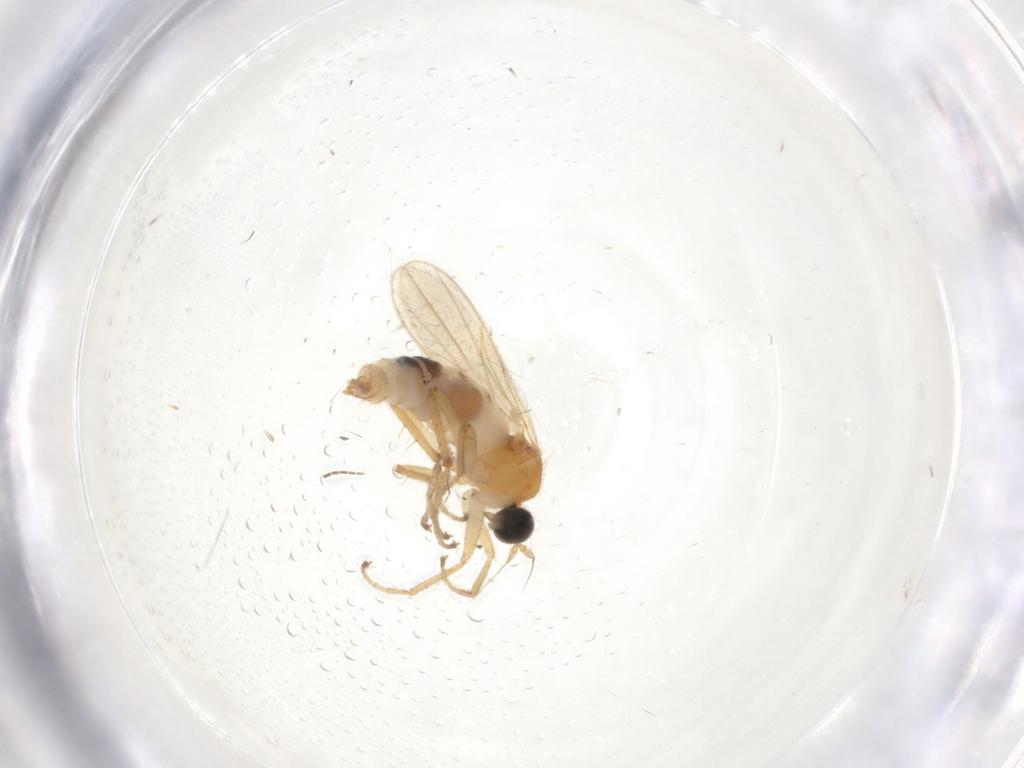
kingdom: Animalia
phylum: Arthropoda
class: Insecta
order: Diptera
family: Hybotidae
